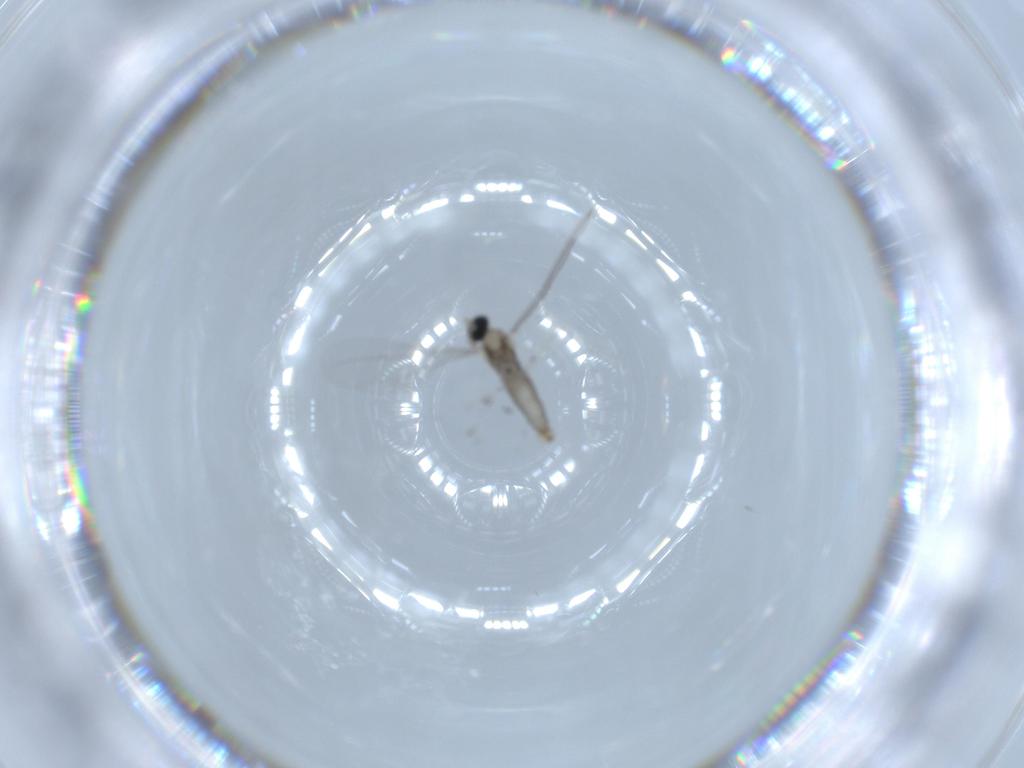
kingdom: Animalia
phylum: Arthropoda
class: Insecta
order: Diptera
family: Cecidomyiidae
